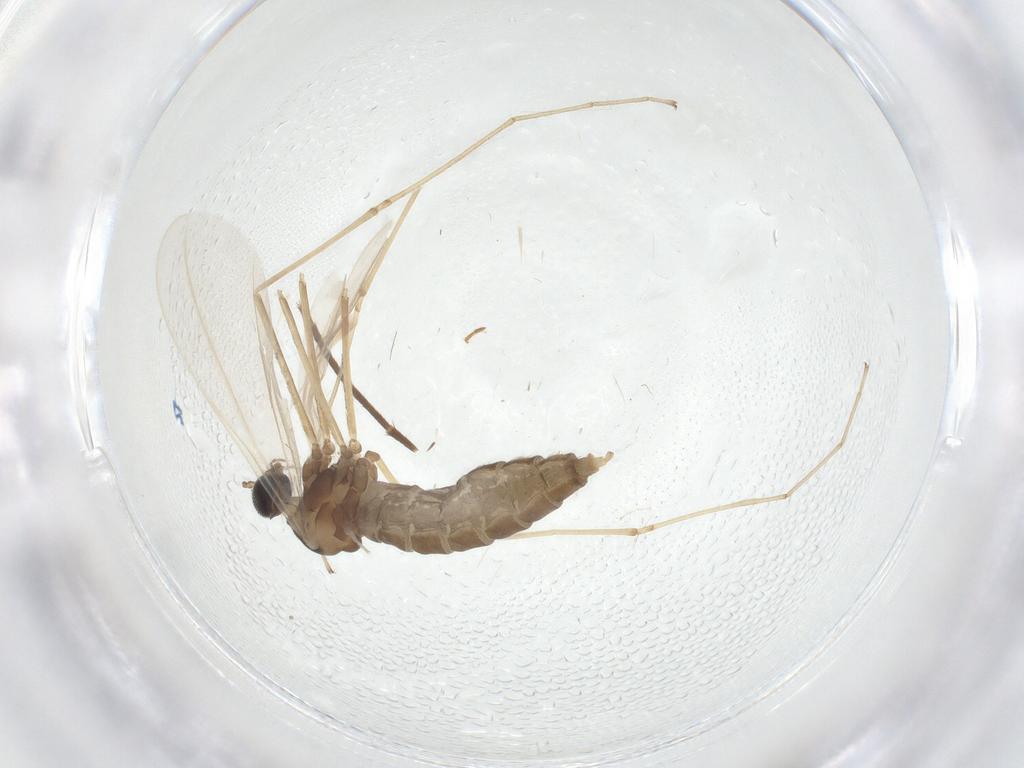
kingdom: Animalia
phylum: Arthropoda
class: Insecta
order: Diptera
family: Cecidomyiidae
